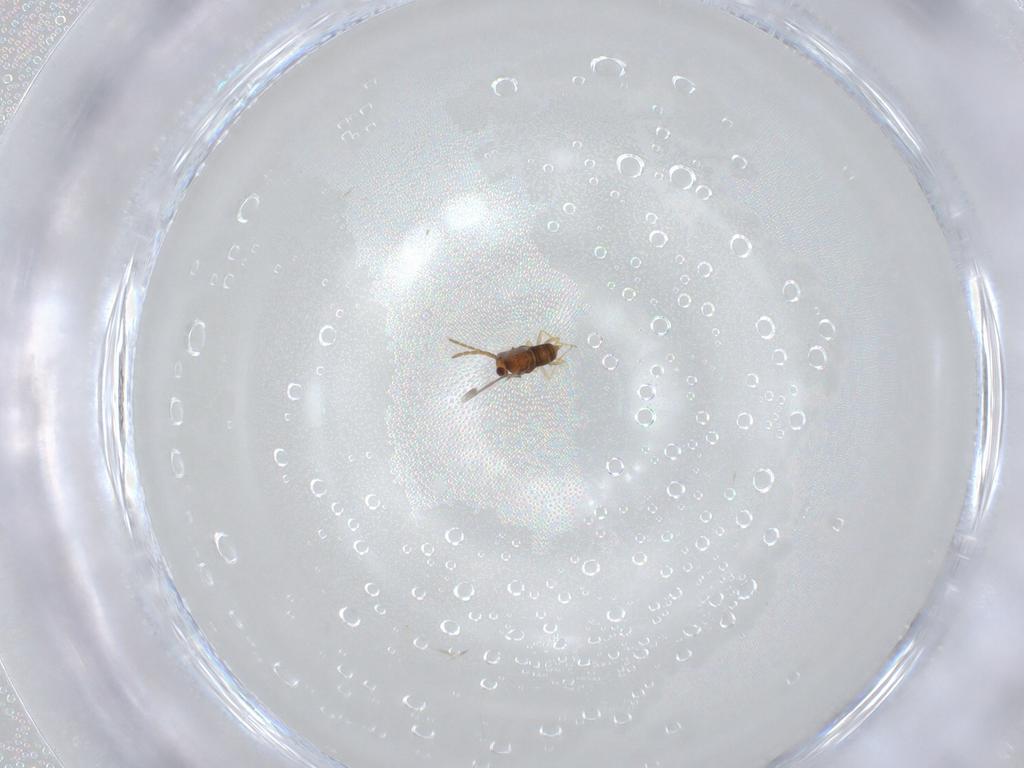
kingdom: Animalia
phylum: Arthropoda
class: Insecta
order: Hymenoptera
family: Aphelinidae
